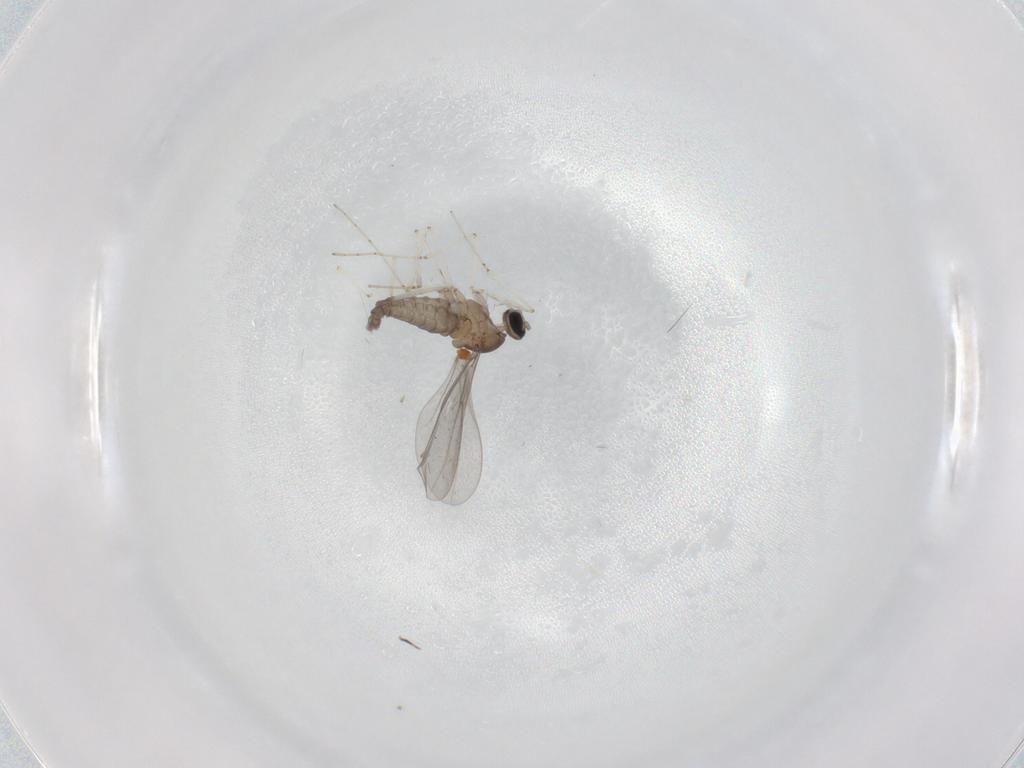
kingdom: Animalia
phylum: Arthropoda
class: Insecta
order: Diptera
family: Cecidomyiidae
